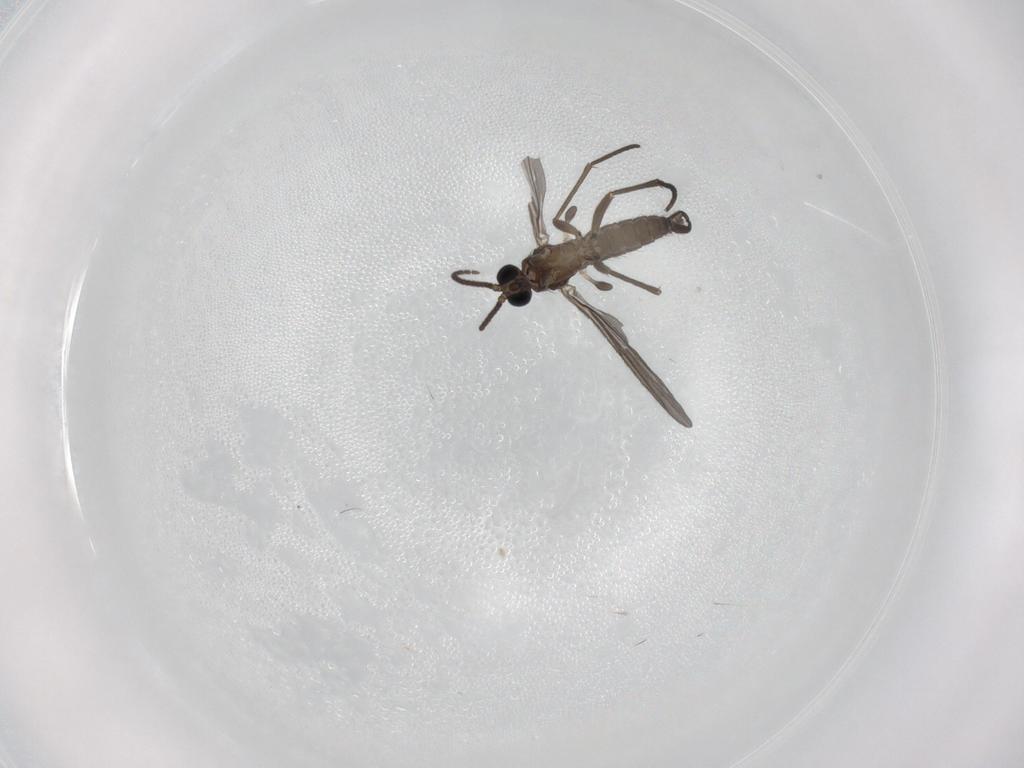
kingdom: Animalia
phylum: Arthropoda
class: Insecta
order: Diptera
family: Sciaridae
